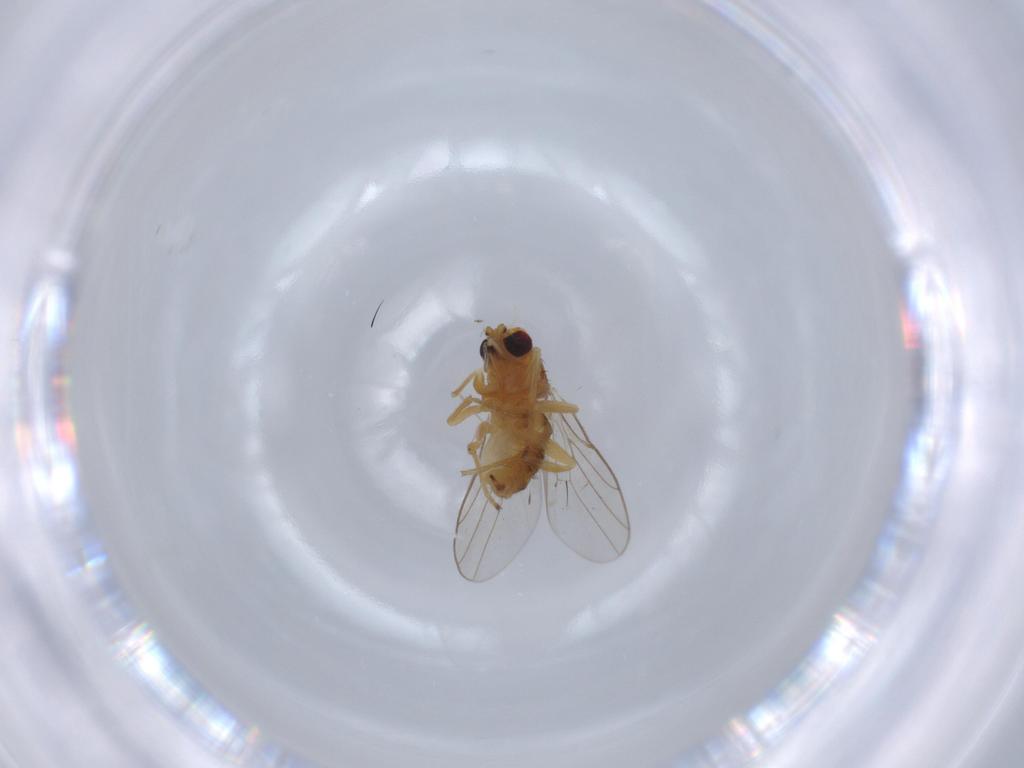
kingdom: Animalia
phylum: Arthropoda
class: Insecta
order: Diptera
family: Chloropidae
